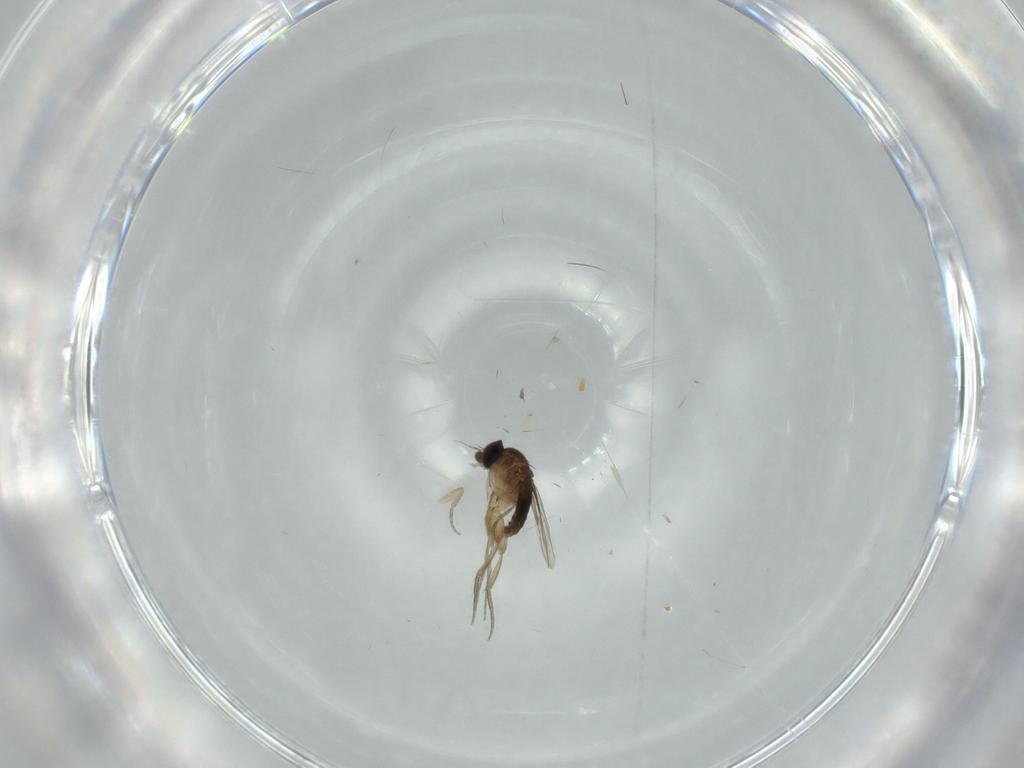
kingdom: Animalia
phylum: Arthropoda
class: Insecta
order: Diptera
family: Phoridae
